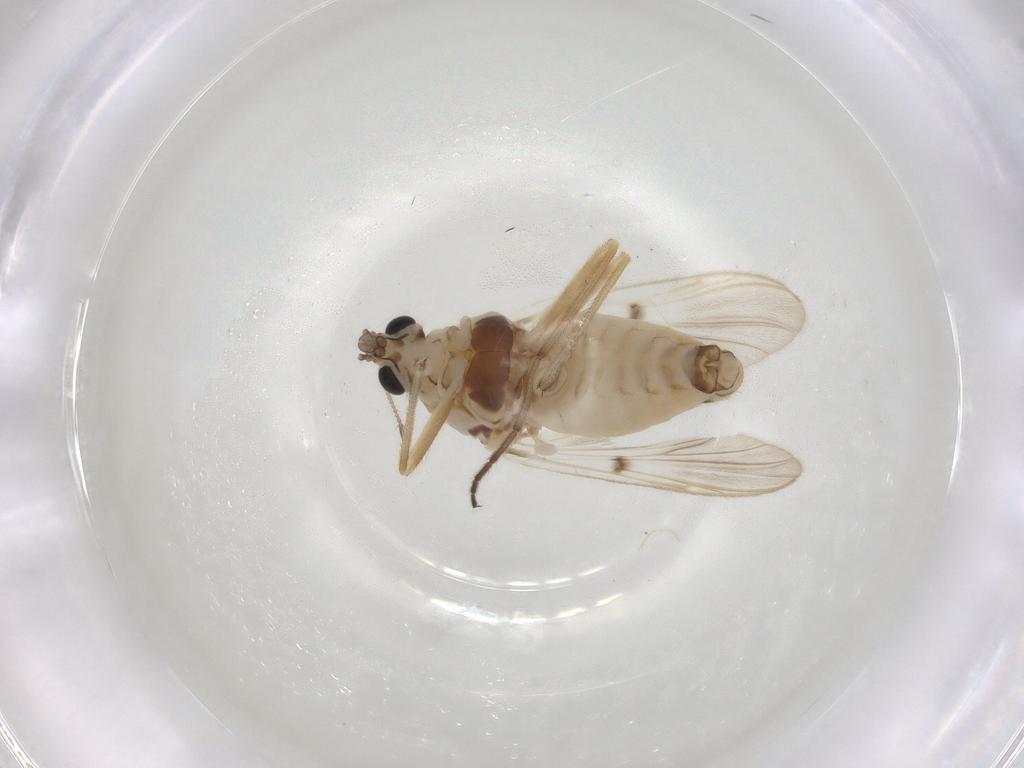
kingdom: Animalia
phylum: Arthropoda
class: Insecta
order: Diptera
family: Chironomidae
